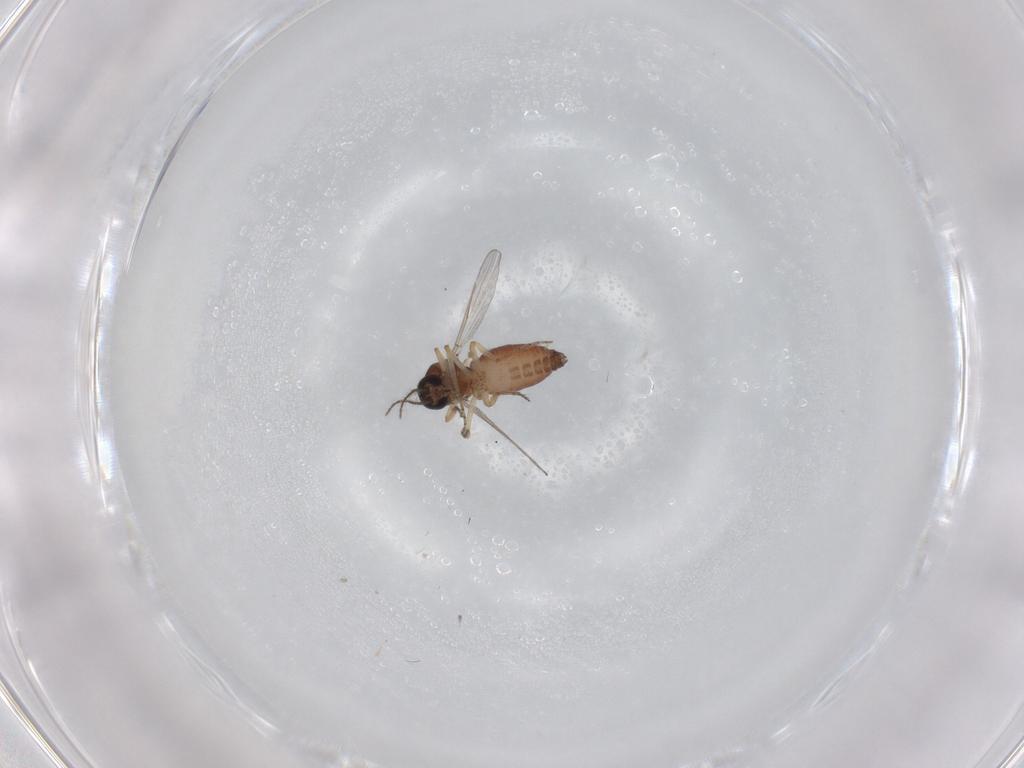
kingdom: Animalia
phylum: Arthropoda
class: Insecta
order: Diptera
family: Ceratopogonidae
